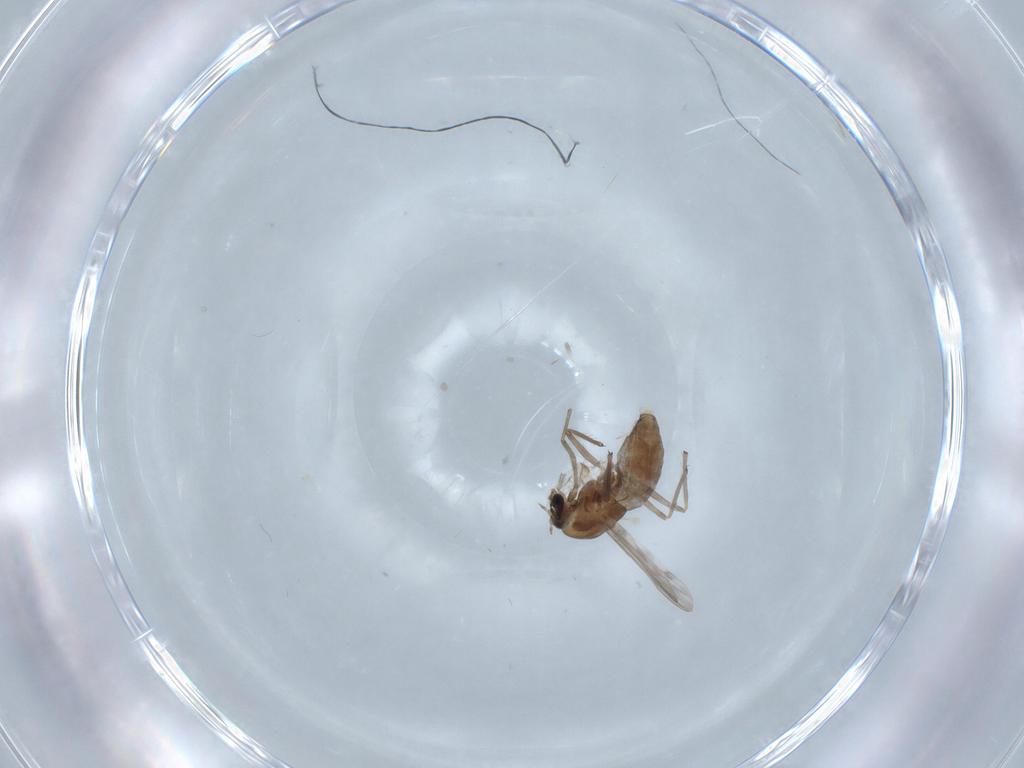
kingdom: Animalia
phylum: Arthropoda
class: Insecta
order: Diptera
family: Chironomidae
